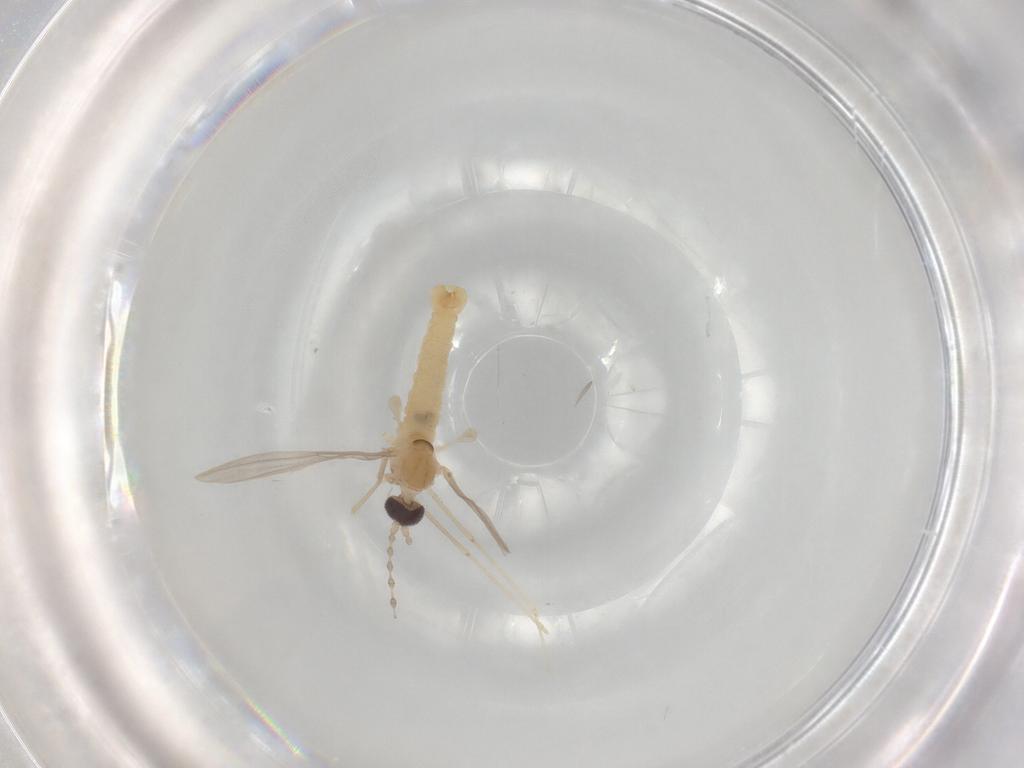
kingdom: Animalia
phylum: Arthropoda
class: Insecta
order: Diptera
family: Cecidomyiidae
